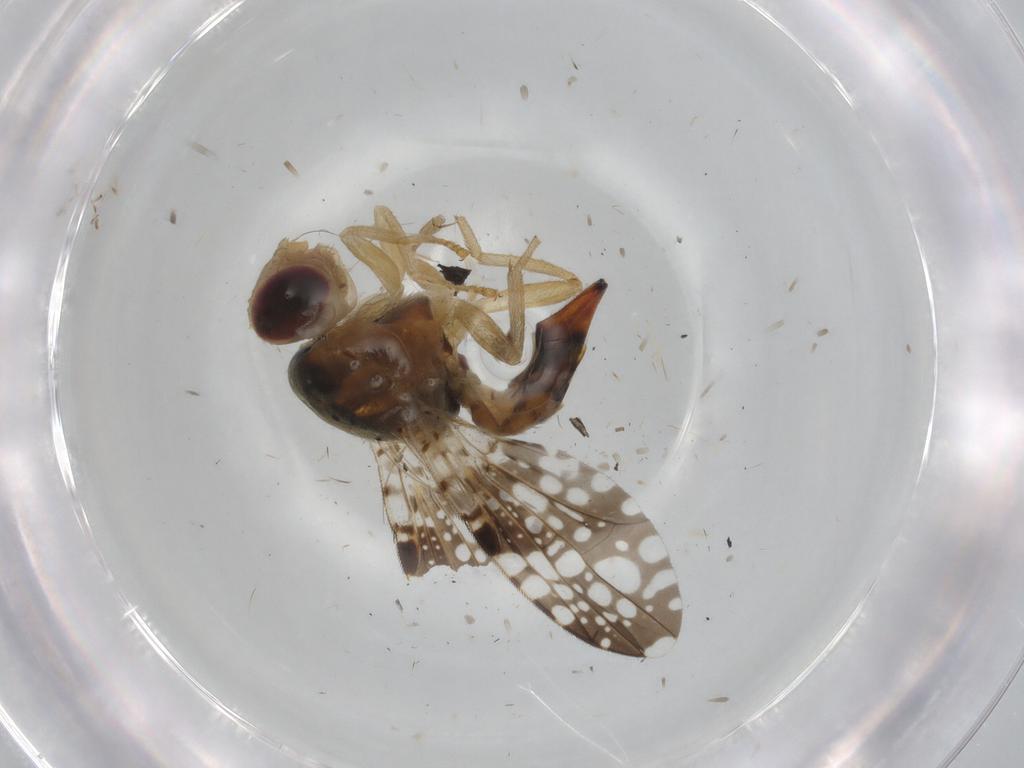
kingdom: Animalia
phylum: Arthropoda
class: Insecta
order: Diptera
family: Tephritidae
